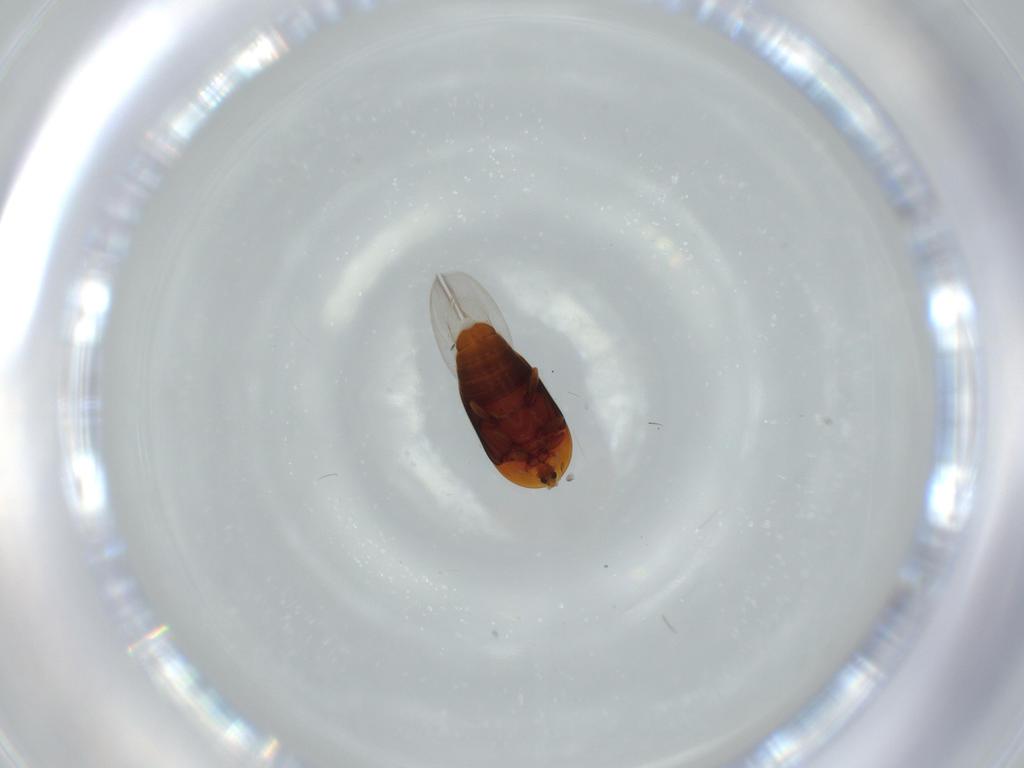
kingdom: Animalia
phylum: Arthropoda
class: Insecta
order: Coleoptera
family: Corylophidae
